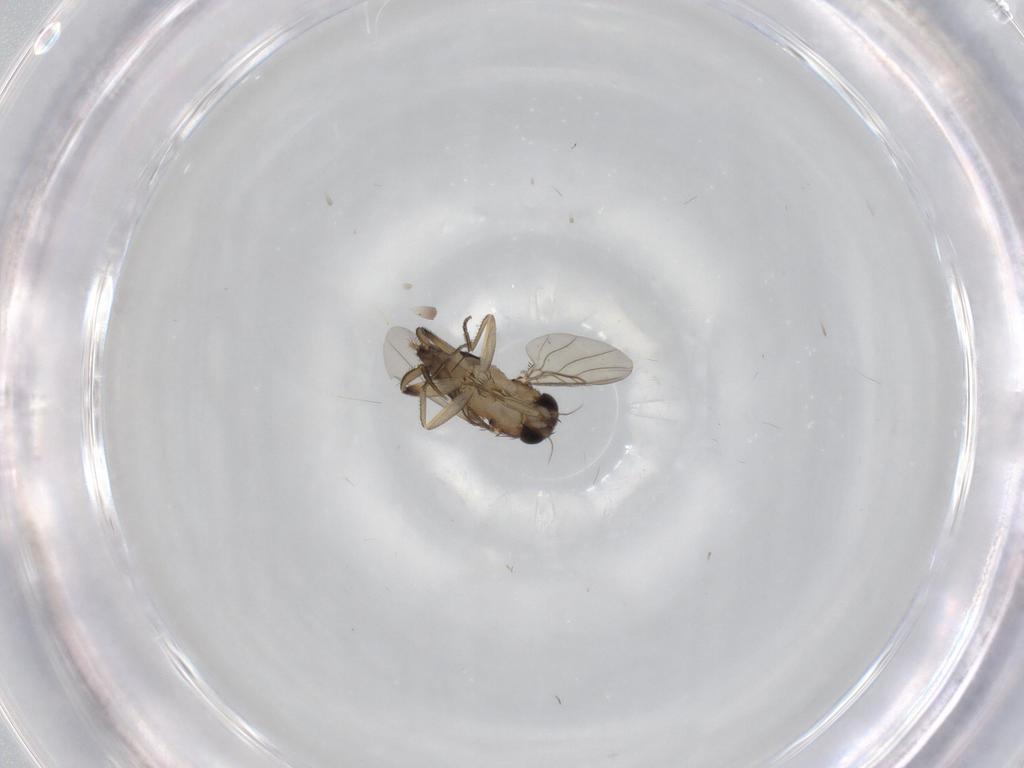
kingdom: Animalia
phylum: Arthropoda
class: Insecta
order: Diptera
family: Phoridae
